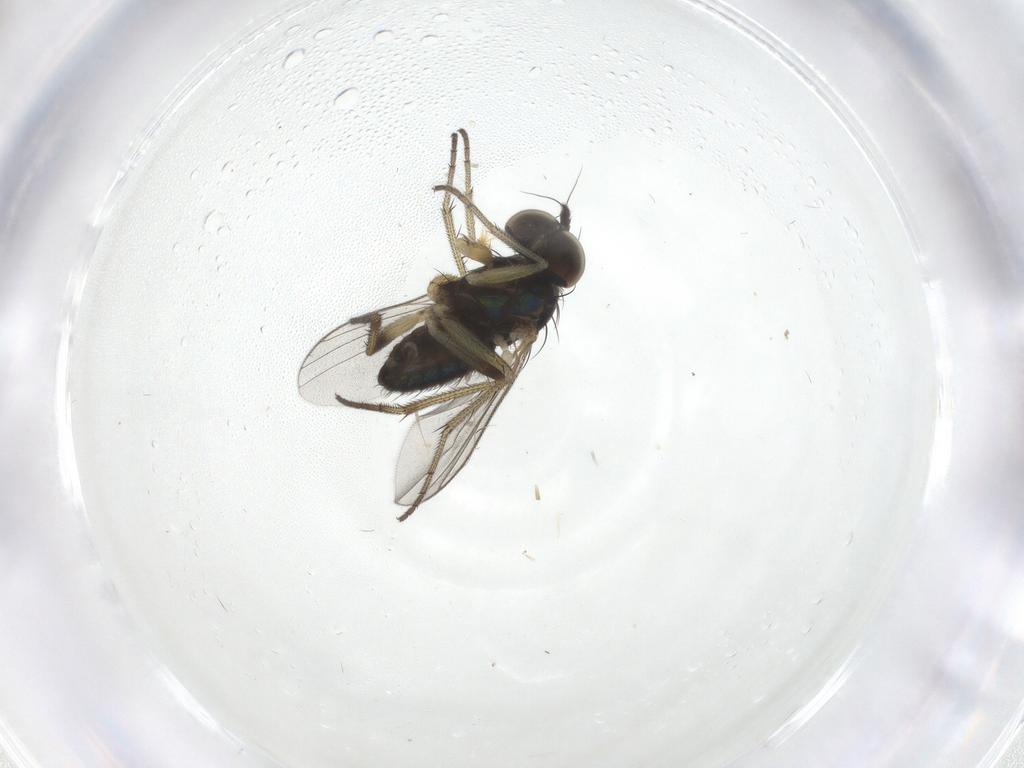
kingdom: Animalia
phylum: Arthropoda
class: Insecta
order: Diptera
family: Dolichopodidae
